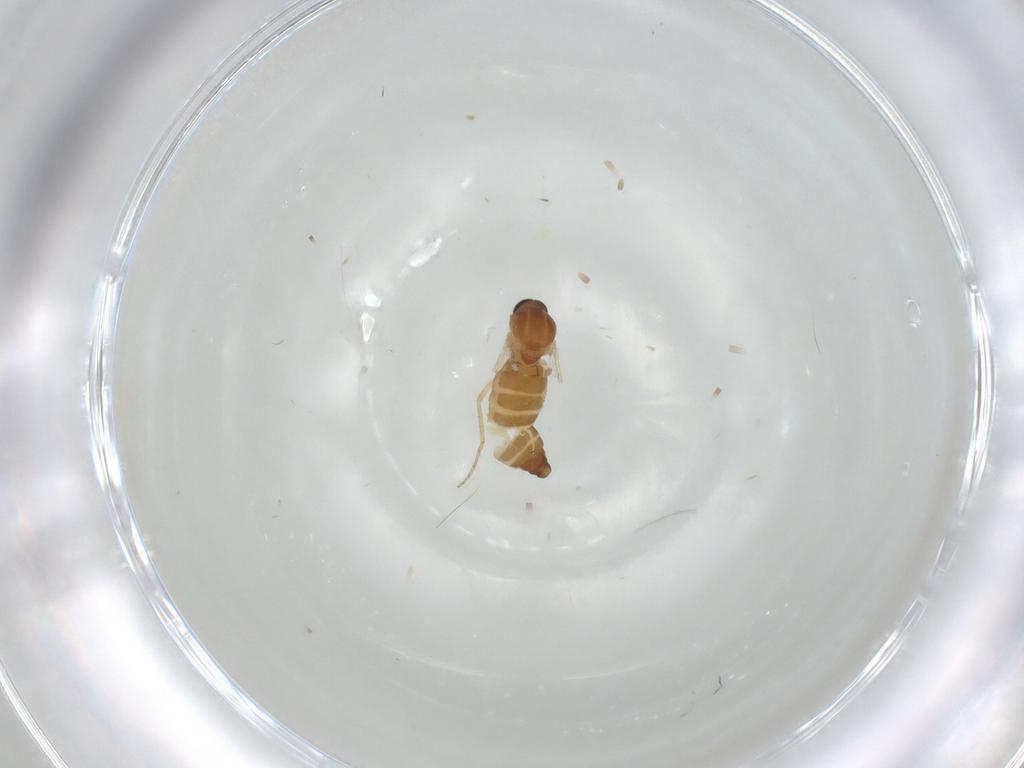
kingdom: Animalia
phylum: Arthropoda
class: Insecta
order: Diptera
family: Ceratopogonidae
